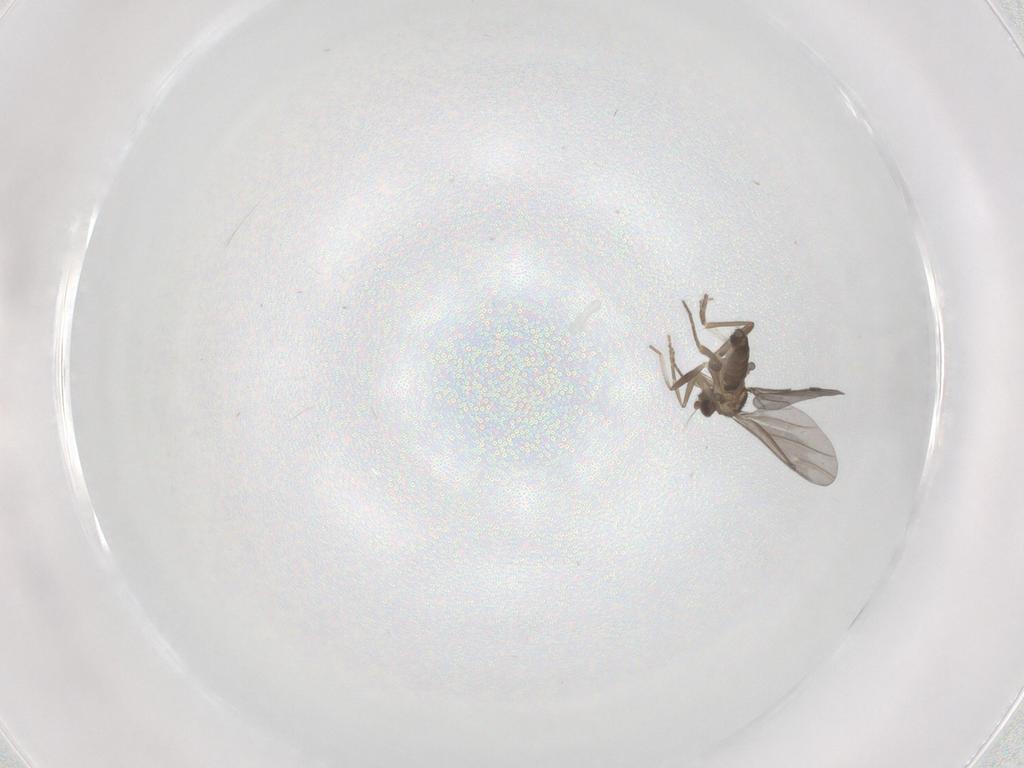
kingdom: Animalia
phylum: Arthropoda
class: Insecta
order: Diptera
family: Phoridae
